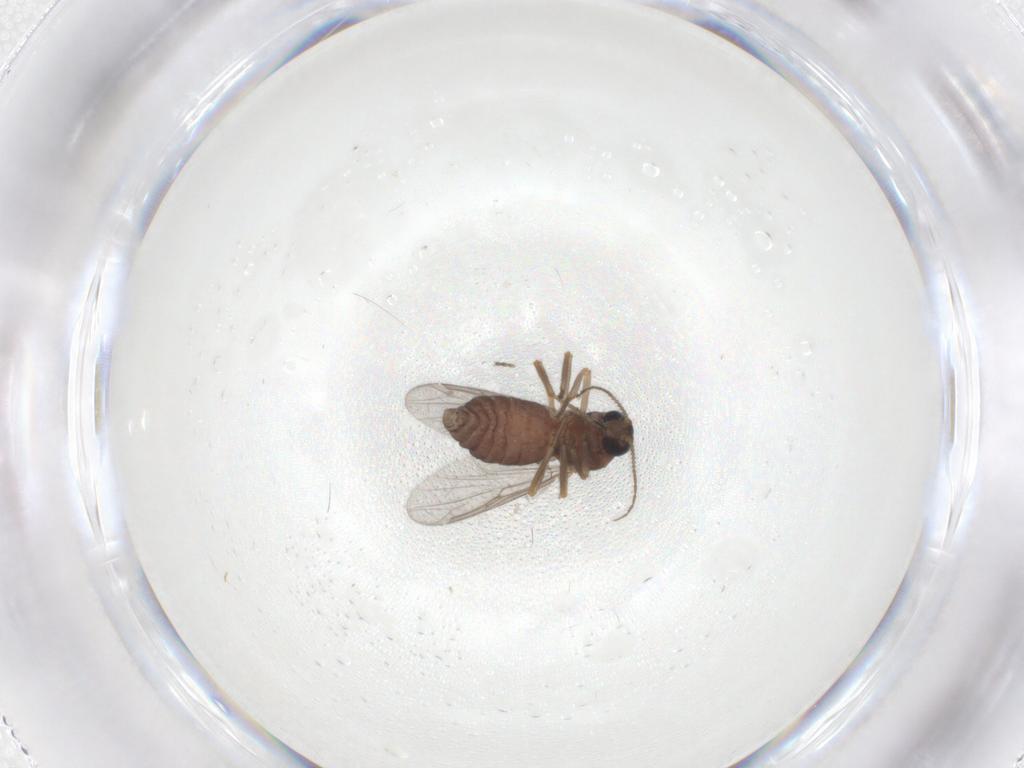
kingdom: Animalia
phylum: Arthropoda
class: Insecta
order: Diptera
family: Ceratopogonidae
